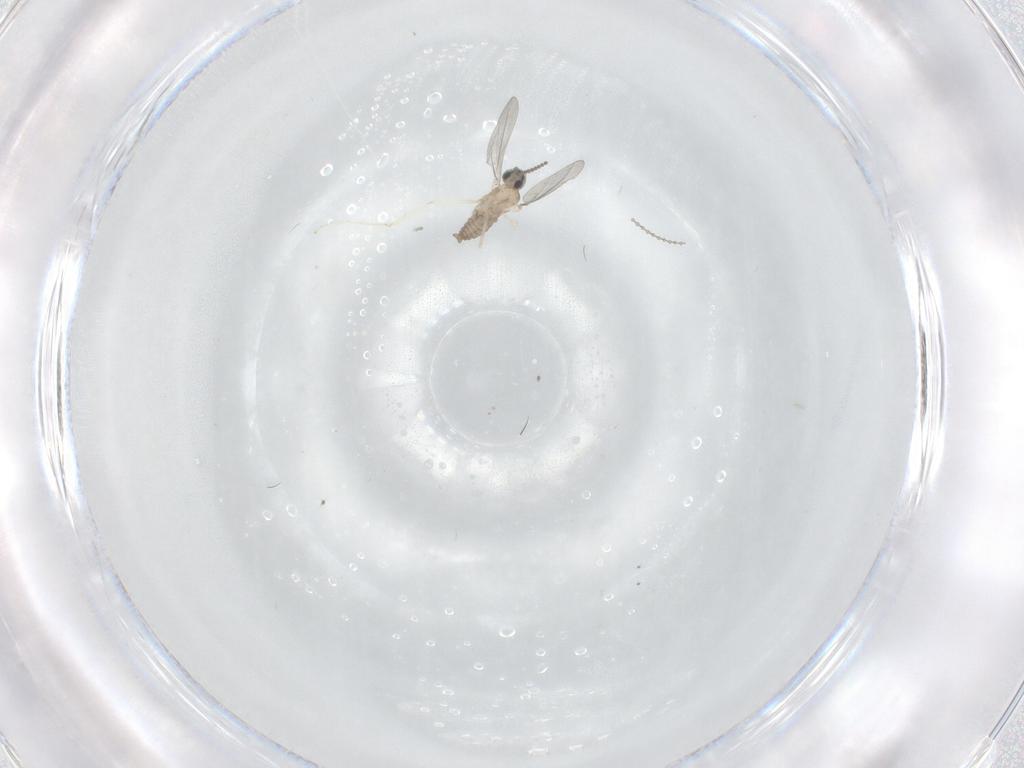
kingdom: Animalia
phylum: Arthropoda
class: Insecta
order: Diptera
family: Cecidomyiidae
